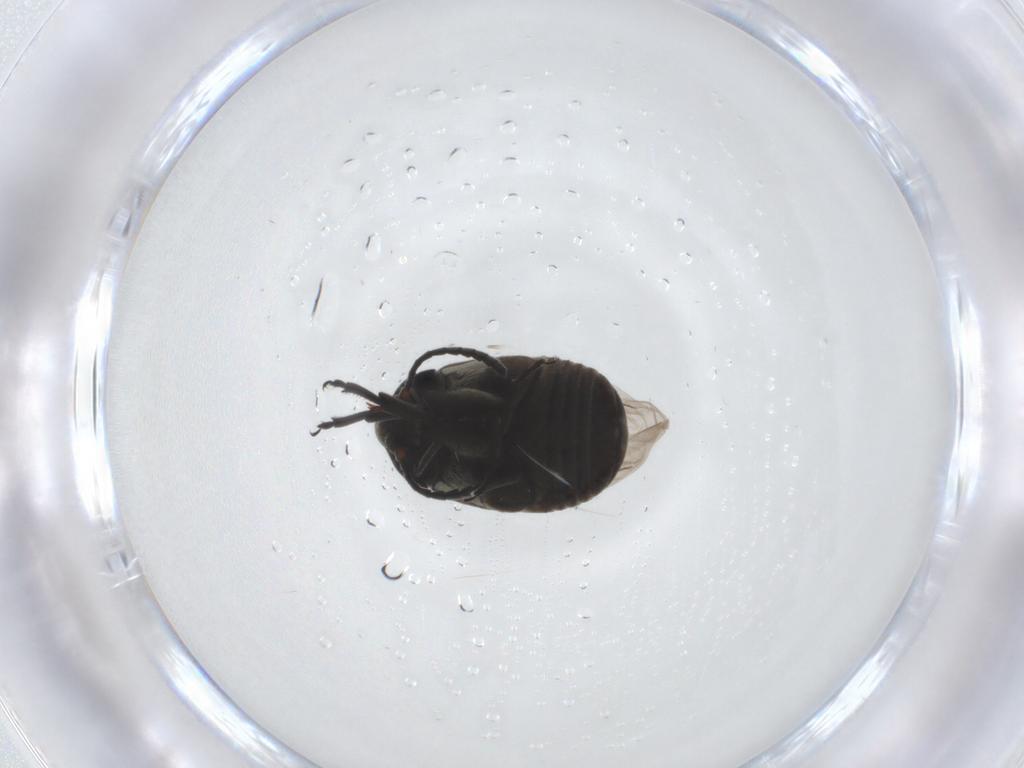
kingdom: Animalia
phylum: Arthropoda
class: Insecta
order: Coleoptera
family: Chrysomelidae
